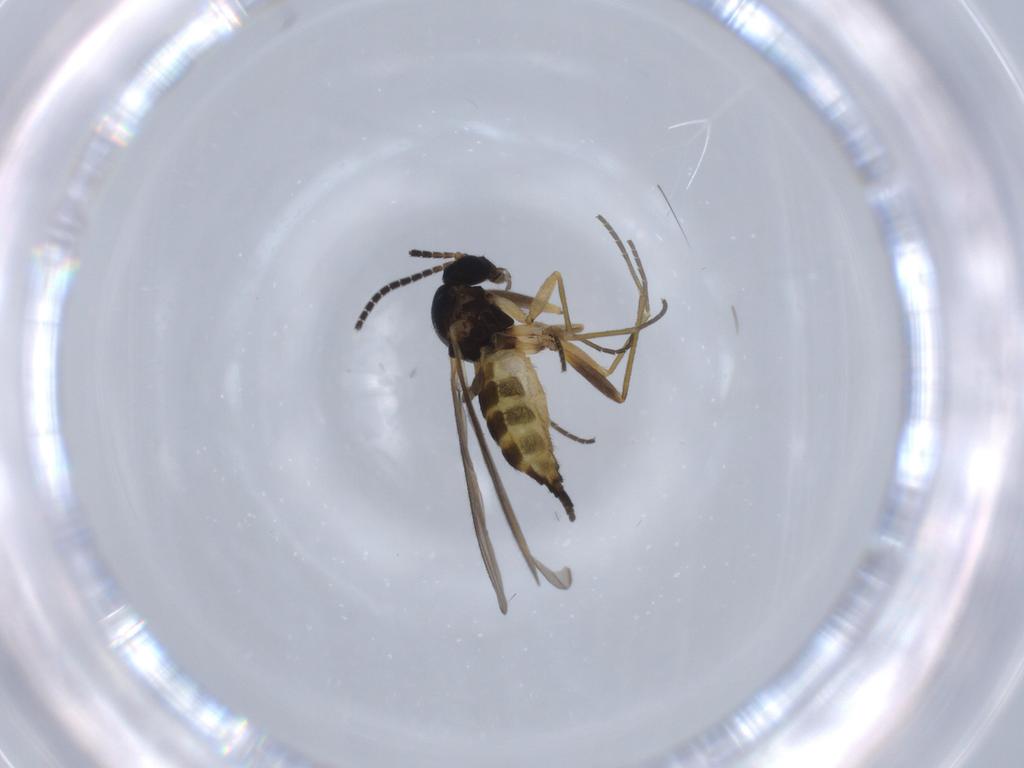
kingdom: Animalia
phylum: Arthropoda
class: Insecta
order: Diptera
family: Sciaridae
